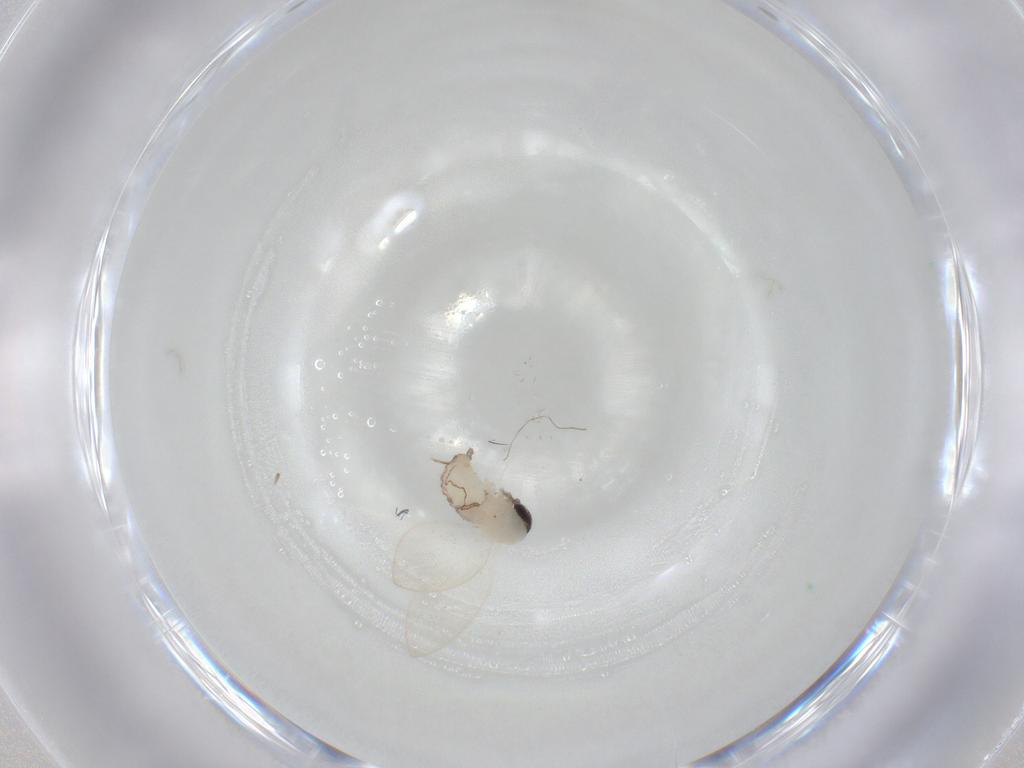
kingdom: Animalia
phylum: Arthropoda
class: Insecta
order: Diptera
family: Psychodidae
